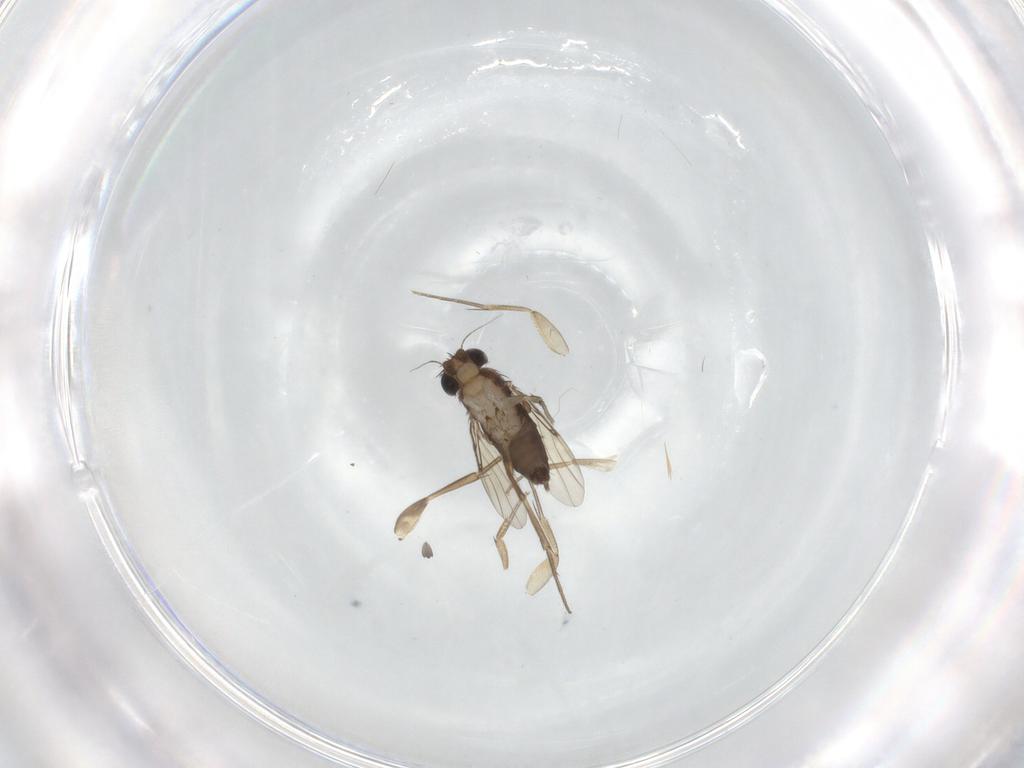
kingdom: Animalia
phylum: Arthropoda
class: Insecta
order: Diptera
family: Phoridae
